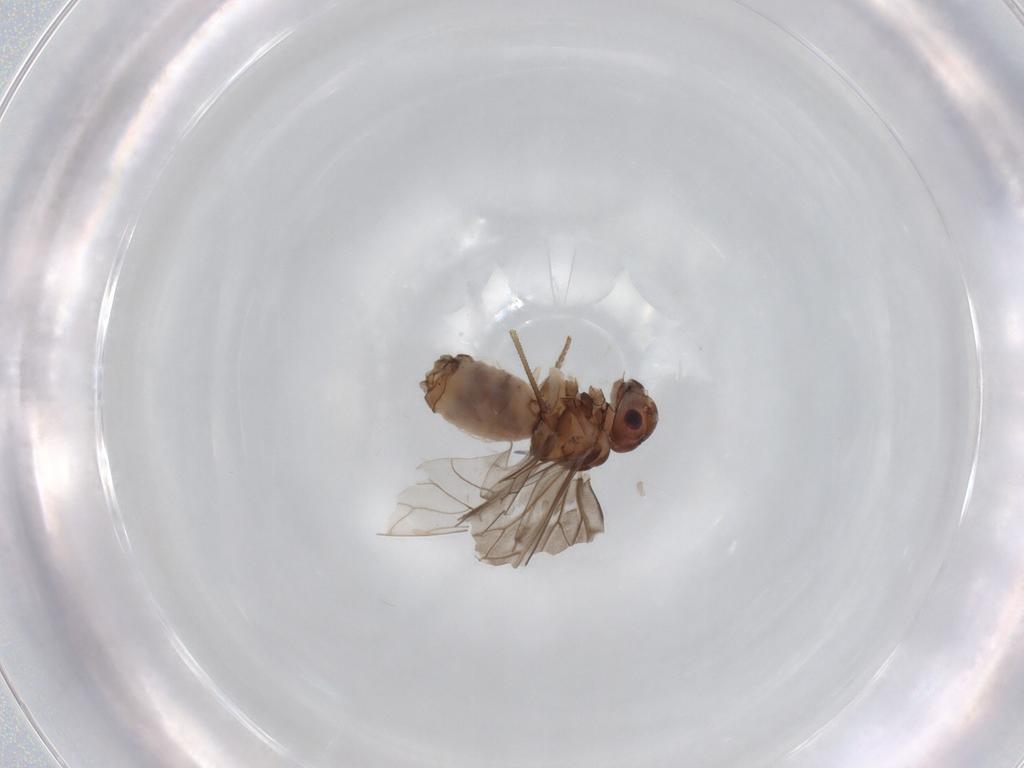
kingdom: Animalia
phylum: Arthropoda
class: Insecta
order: Psocodea
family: Peripsocidae
